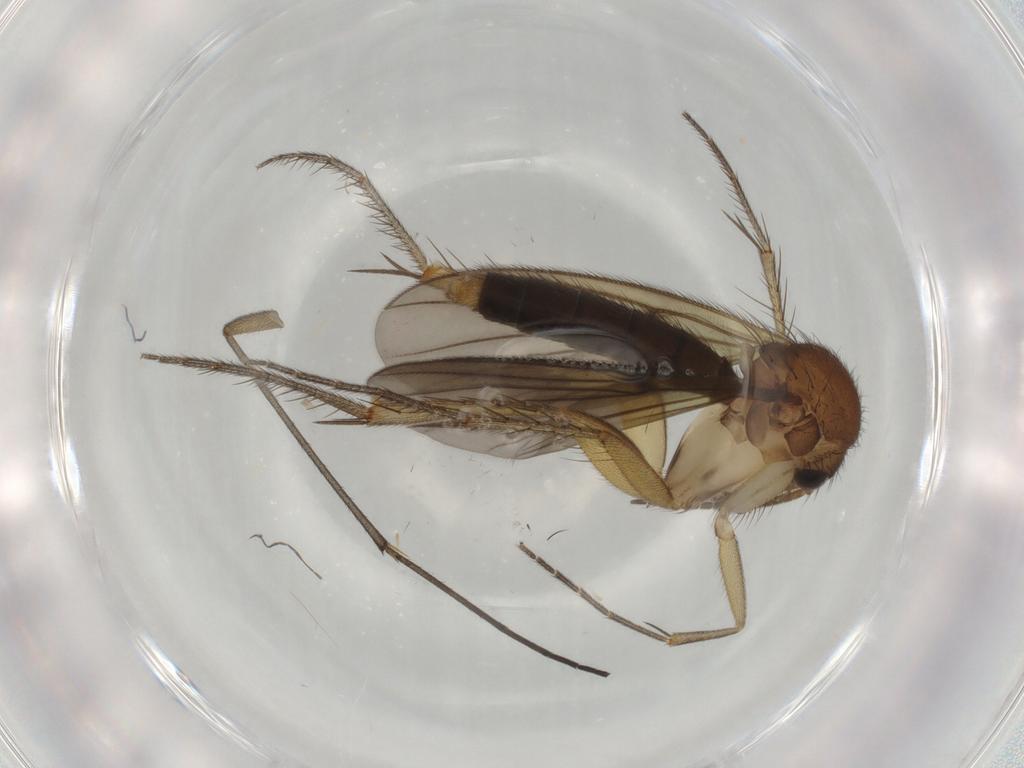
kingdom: Animalia
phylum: Arthropoda
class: Insecta
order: Diptera
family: Mycetophilidae
